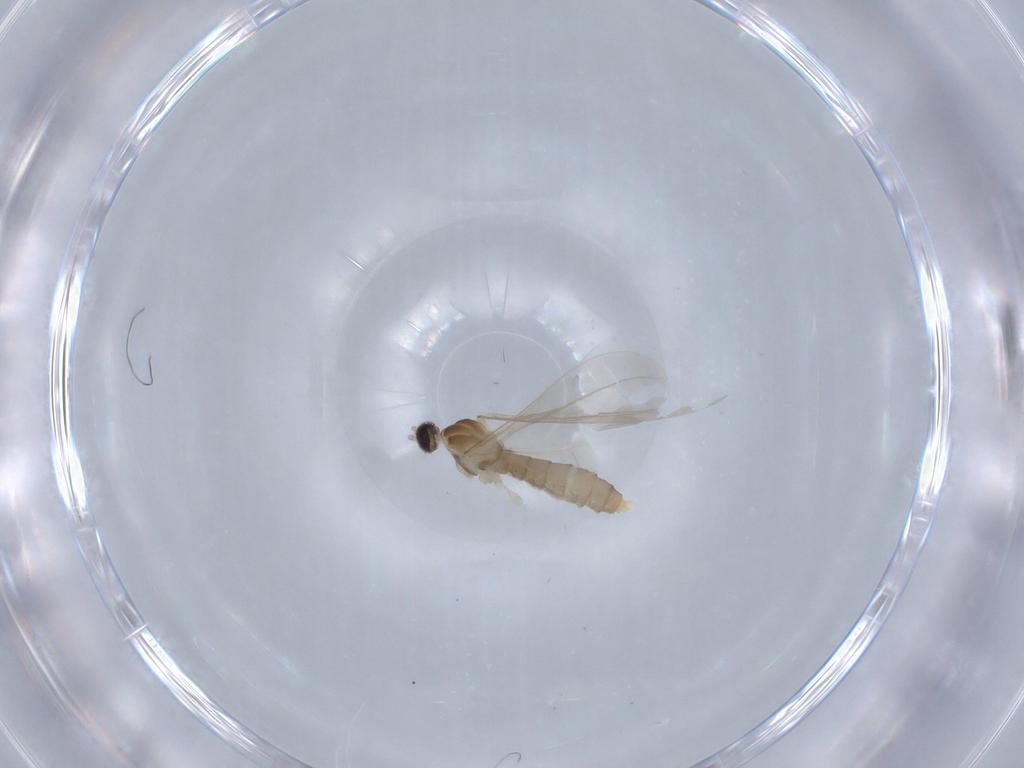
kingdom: Animalia
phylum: Arthropoda
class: Insecta
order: Diptera
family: Cecidomyiidae
